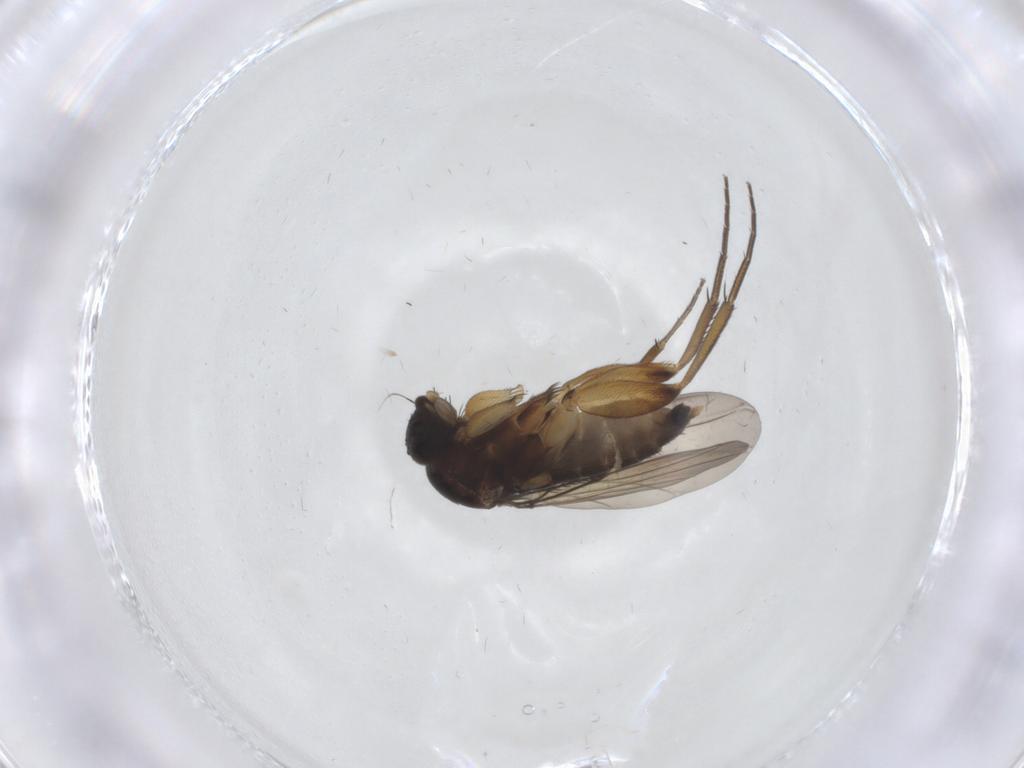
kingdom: Animalia
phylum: Arthropoda
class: Insecta
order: Diptera
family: Phoridae
